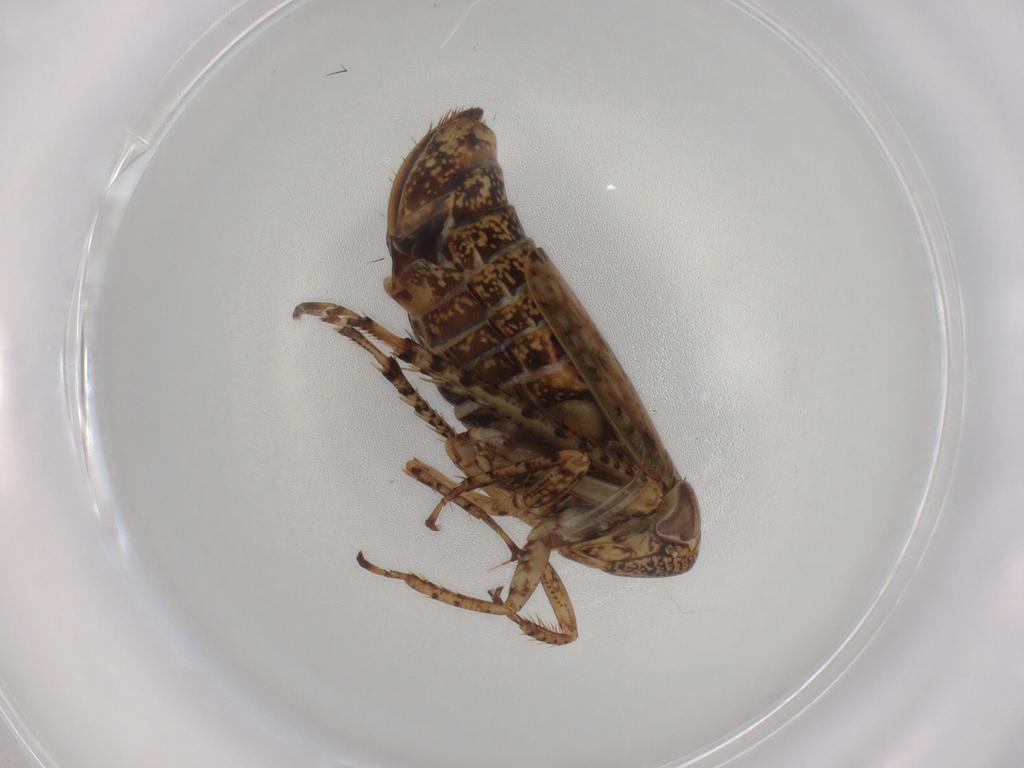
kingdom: Animalia
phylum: Arthropoda
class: Insecta
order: Hemiptera
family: Cicadellidae
